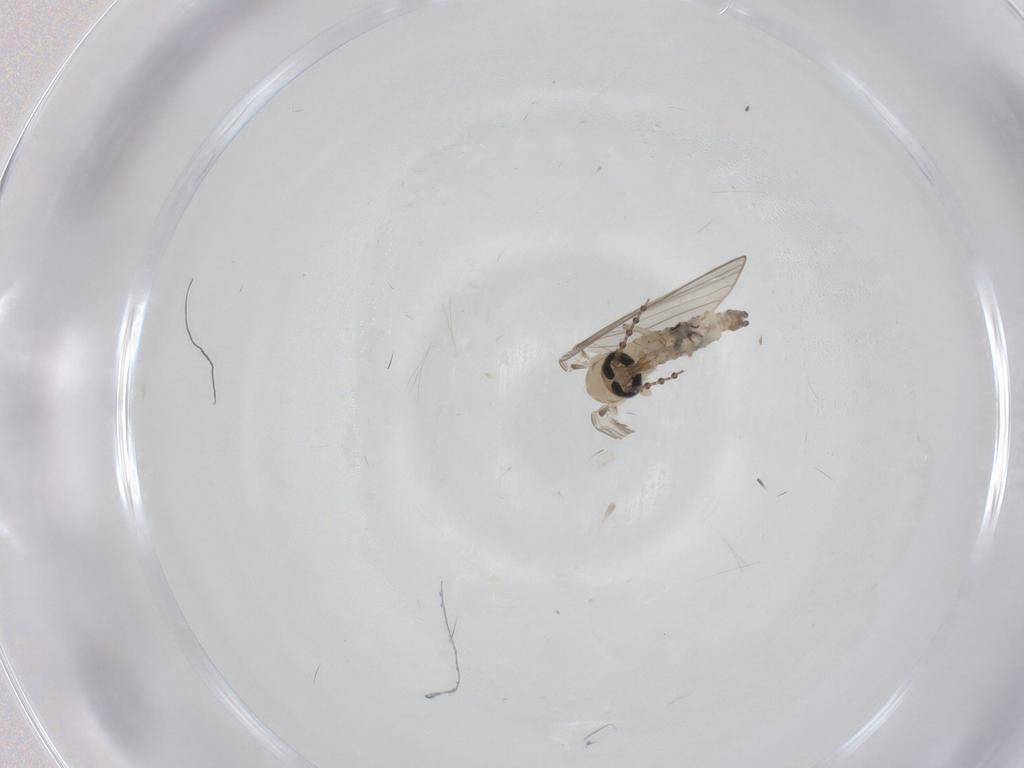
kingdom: Animalia
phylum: Arthropoda
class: Insecta
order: Diptera
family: Psychodidae
